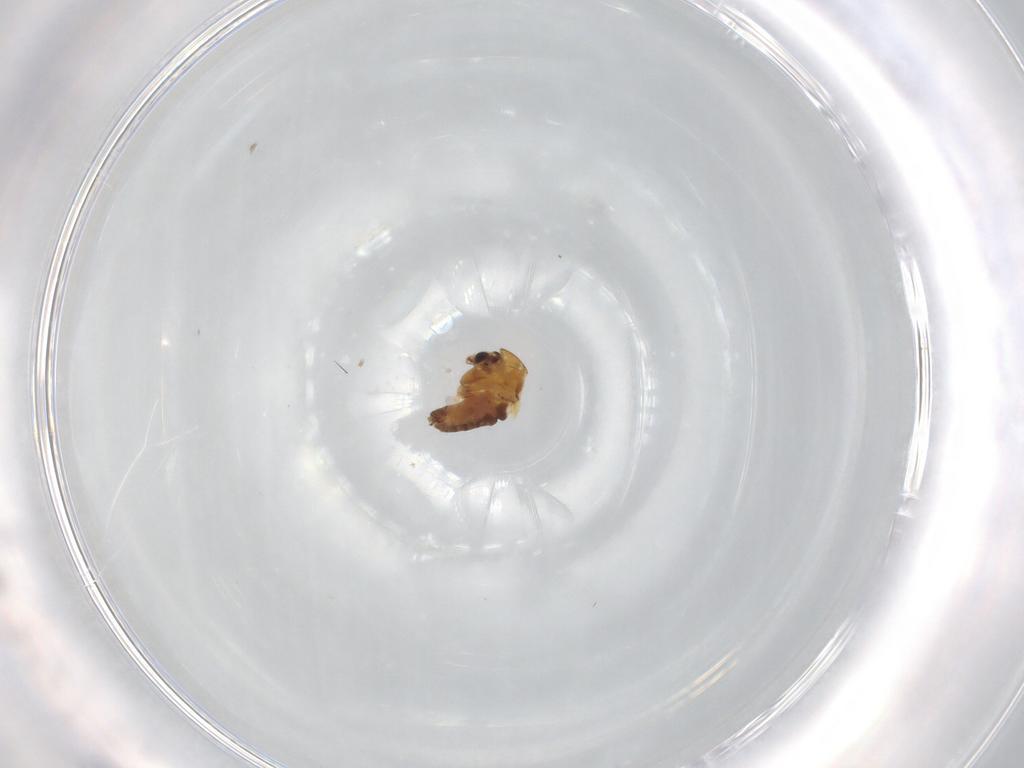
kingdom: Animalia
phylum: Arthropoda
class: Insecta
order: Diptera
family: Chironomidae
